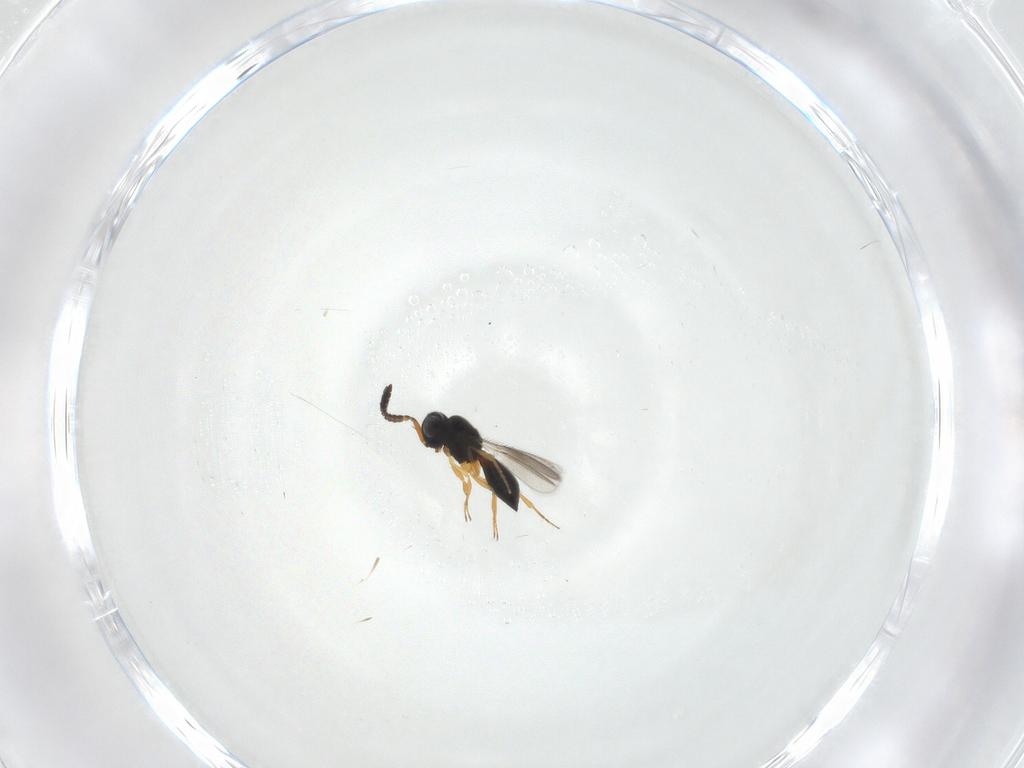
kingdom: Animalia
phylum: Arthropoda
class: Insecta
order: Hymenoptera
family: Scelionidae
